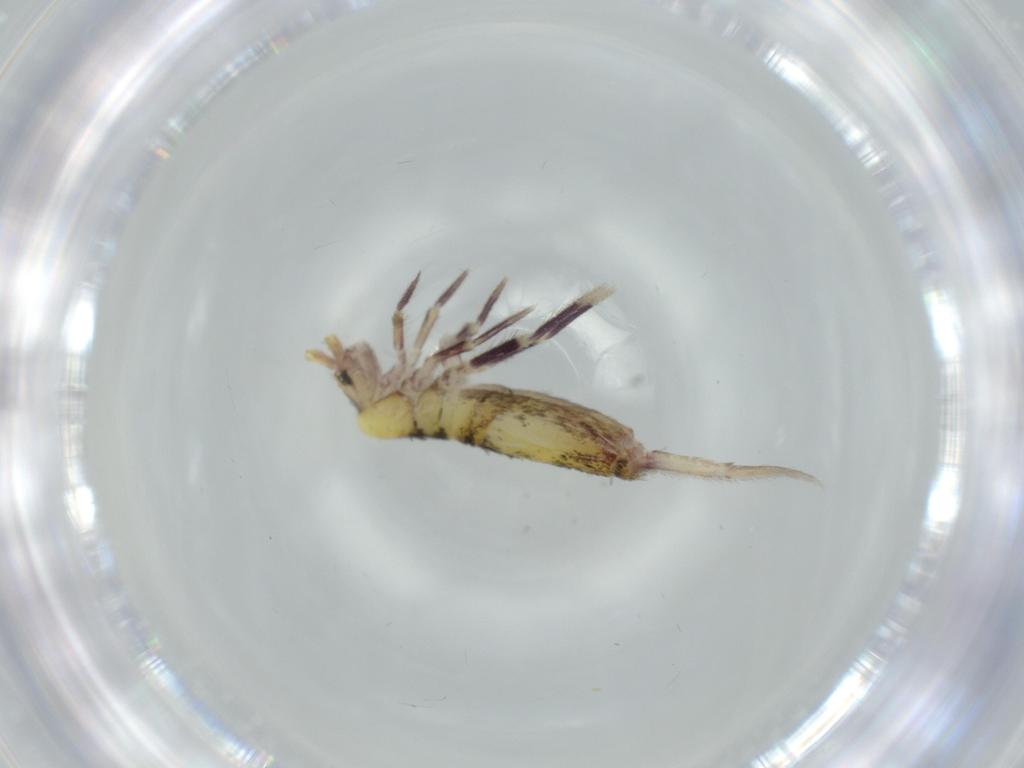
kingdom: Animalia
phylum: Arthropoda
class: Collembola
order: Entomobryomorpha
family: Entomobryidae
